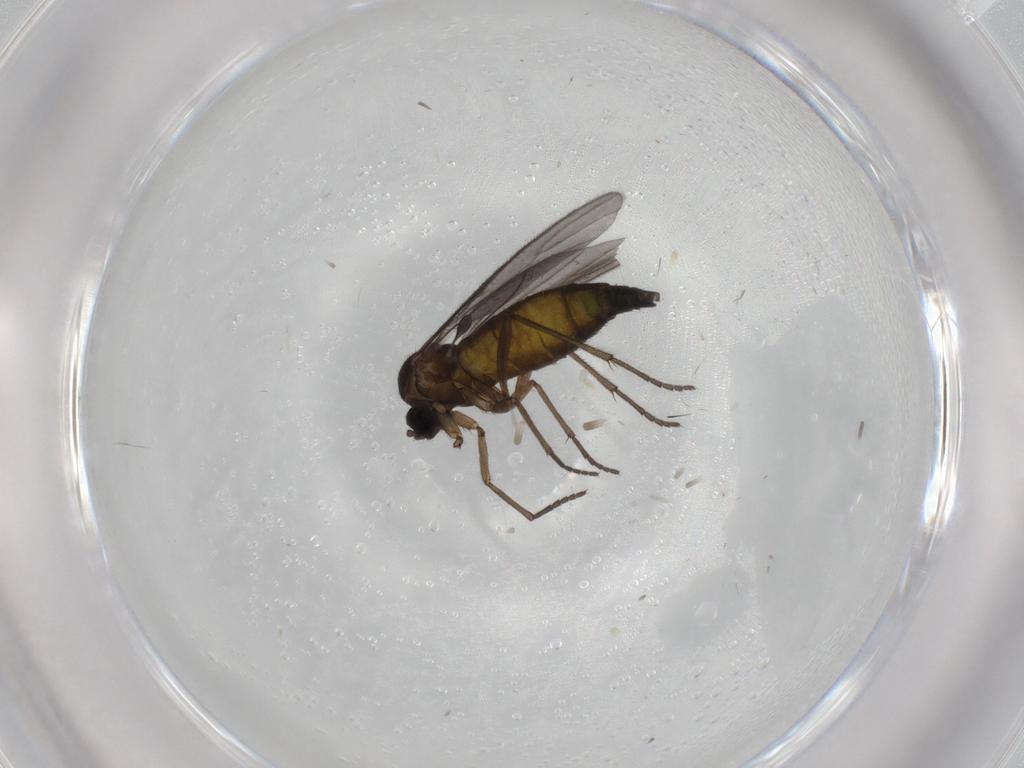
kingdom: Animalia
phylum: Arthropoda
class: Insecta
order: Diptera
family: Sciaridae
